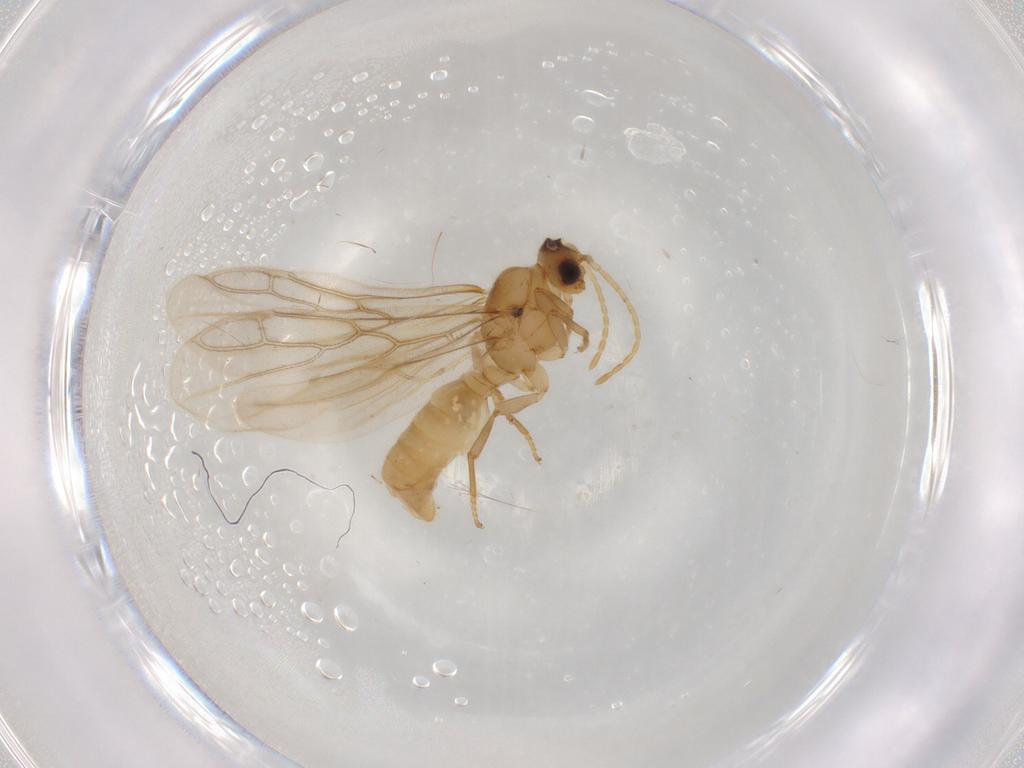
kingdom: Animalia
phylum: Arthropoda
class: Insecta
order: Hymenoptera
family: Formicidae
